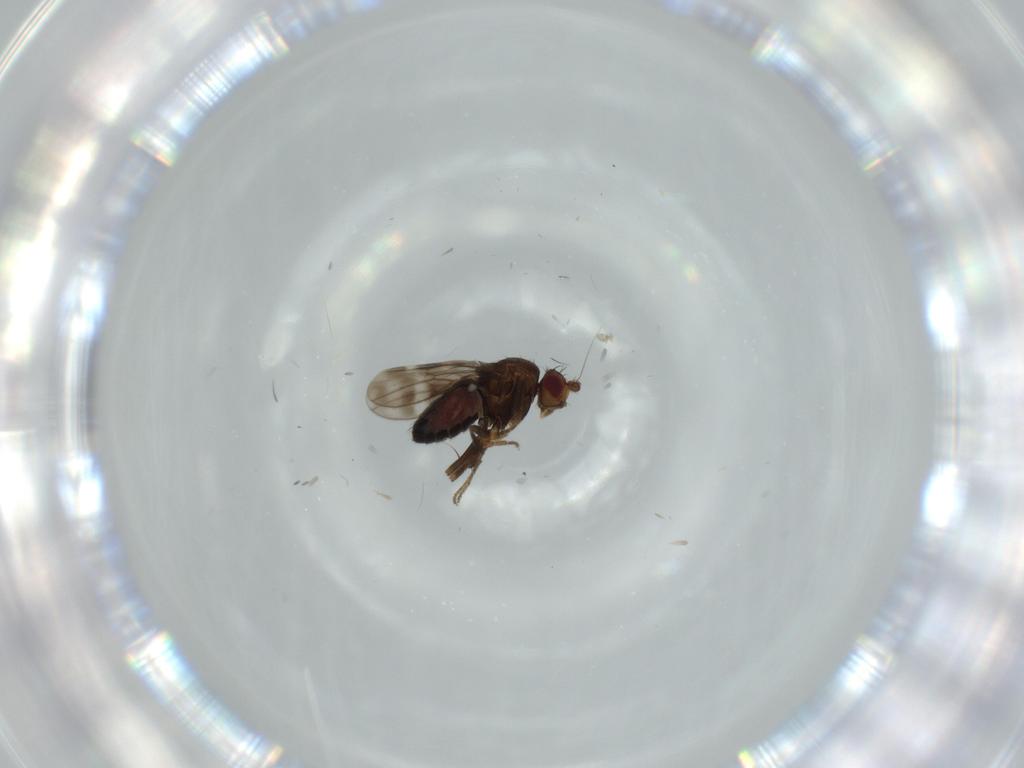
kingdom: Animalia
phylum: Arthropoda
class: Insecta
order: Diptera
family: Sphaeroceridae
